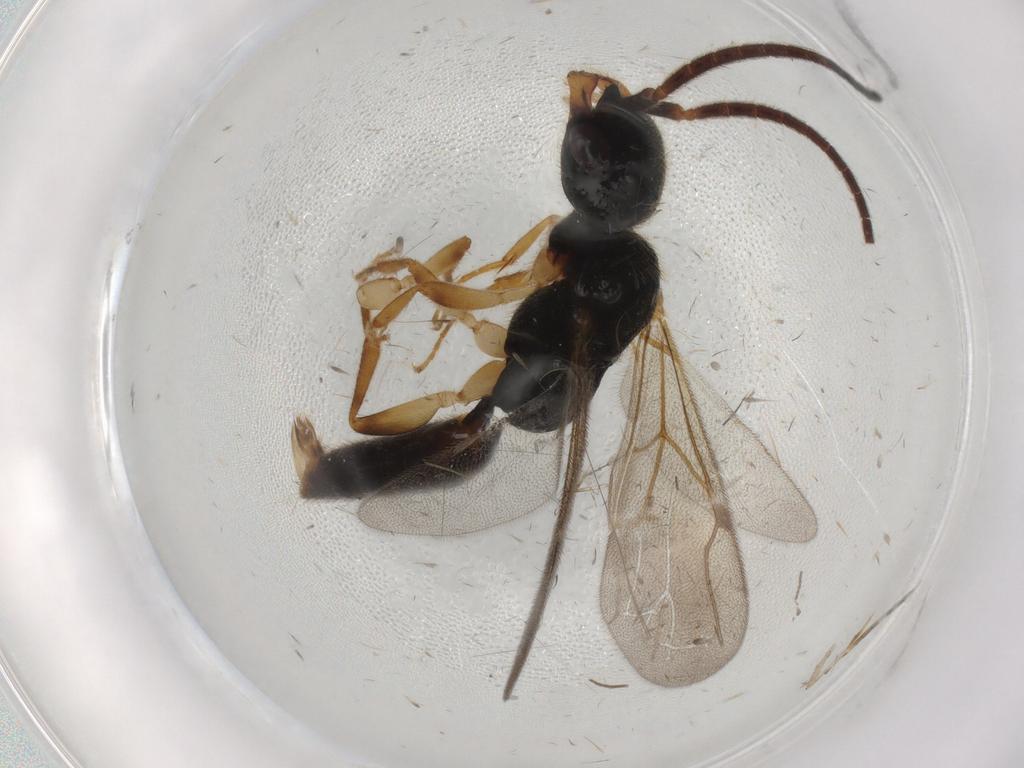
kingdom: Animalia
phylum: Arthropoda
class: Insecta
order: Hymenoptera
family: Bethylidae
